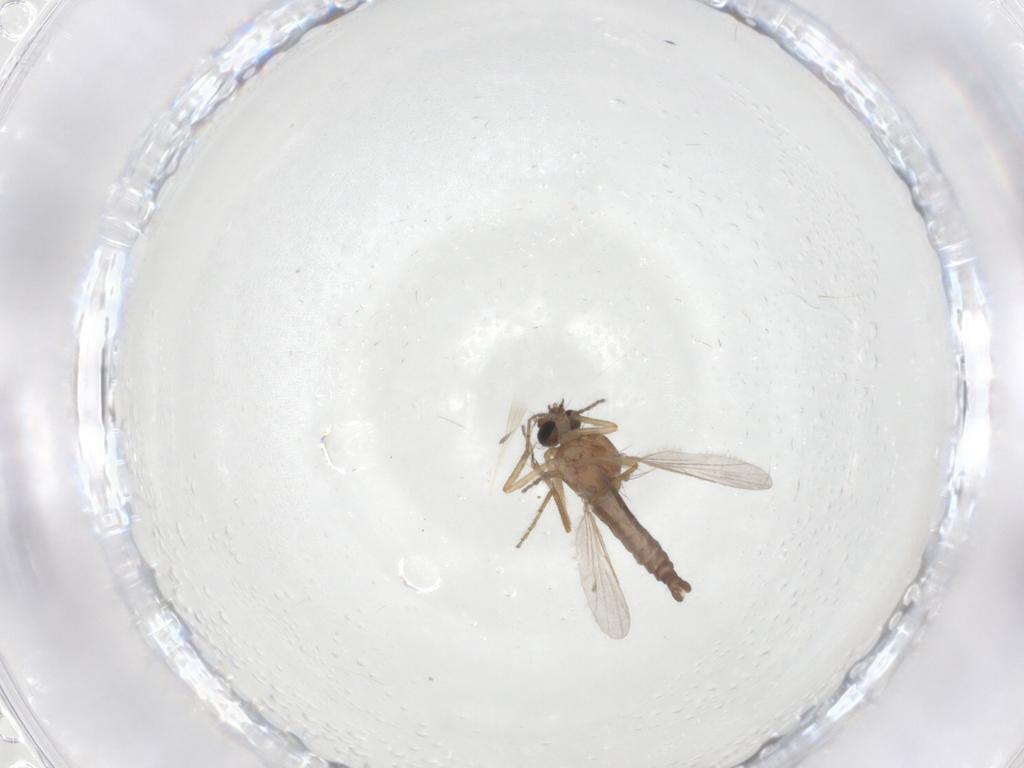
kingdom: Animalia
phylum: Arthropoda
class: Insecta
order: Diptera
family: Ceratopogonidae
